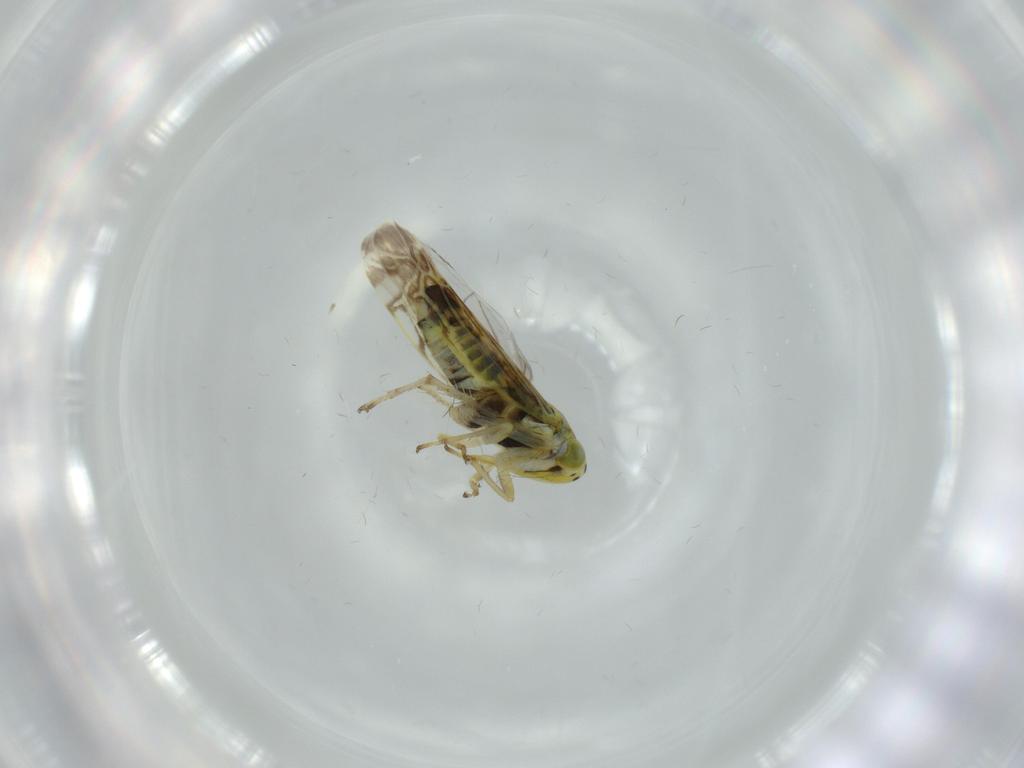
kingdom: Animalia
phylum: Arthropoda
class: Insecta
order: Hemiptera
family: Cicadellidae
